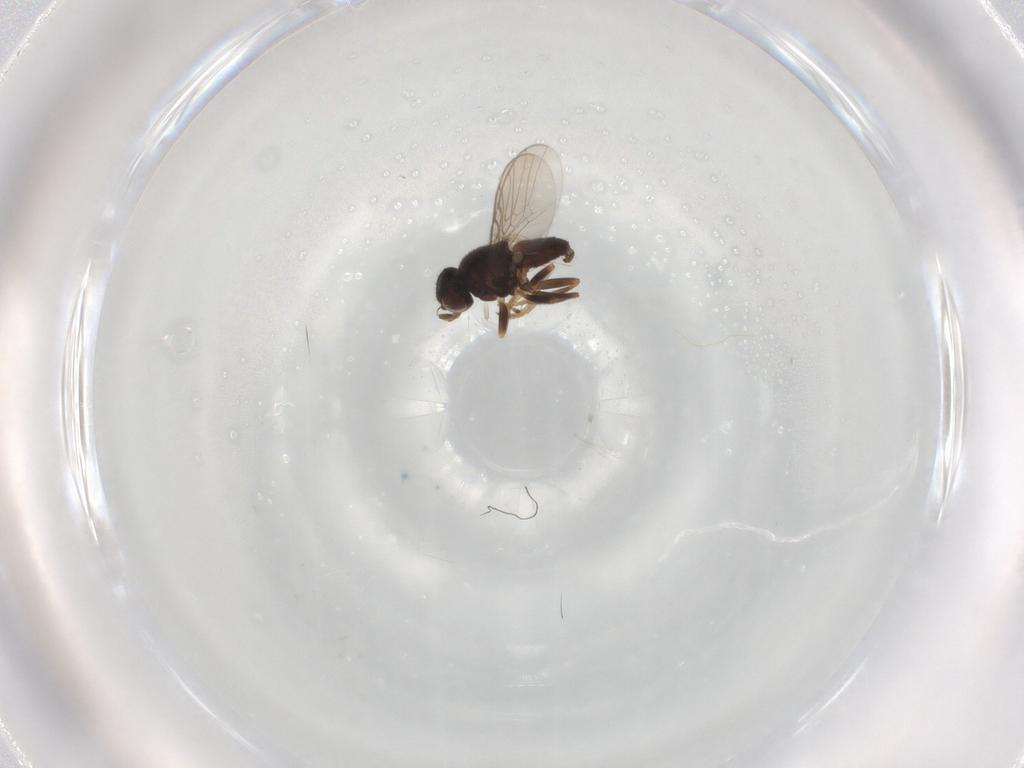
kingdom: Animalia
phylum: Arthropoda
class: Insecta
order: Diptera
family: Chloropidae
